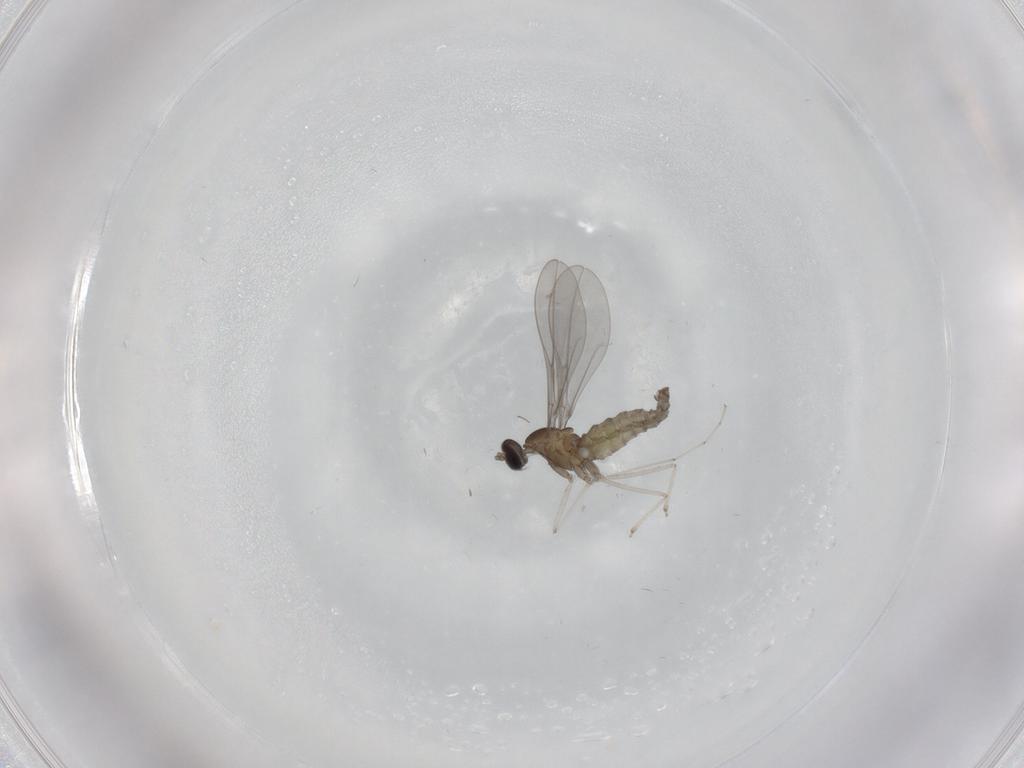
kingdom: Animalia
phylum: Arthropoda
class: Insecta
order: Diptera
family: Cecidomyiidae
